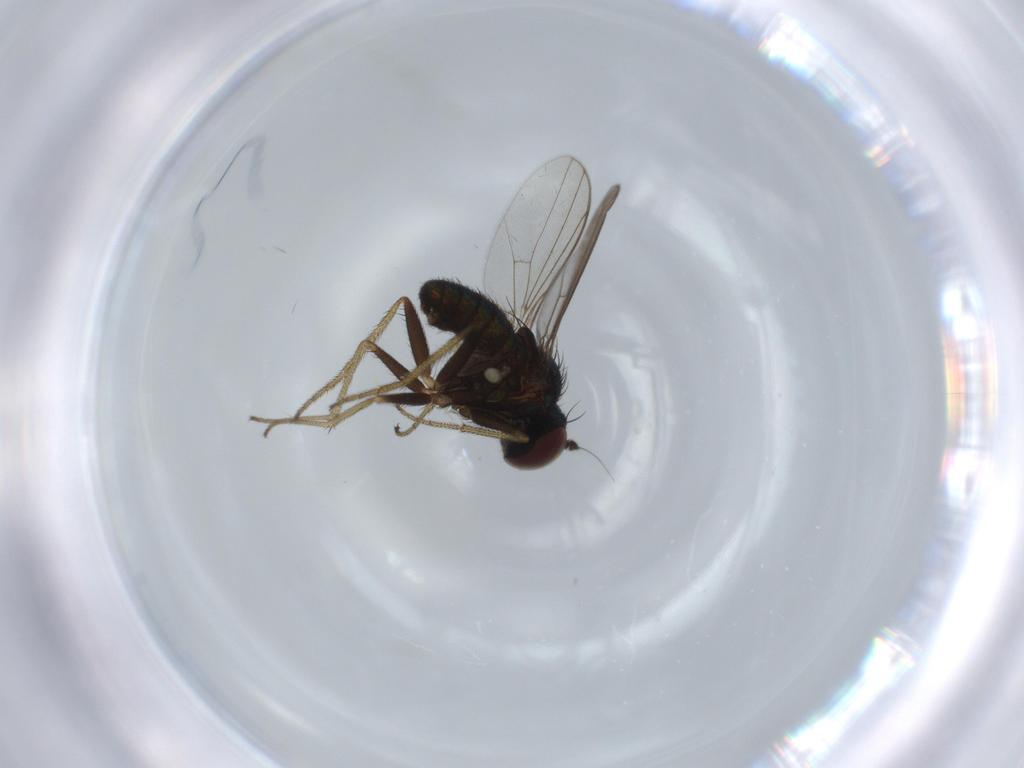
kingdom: Animalia
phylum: Arthropoda
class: Insecta
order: Diptera
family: Dolichopodidae
